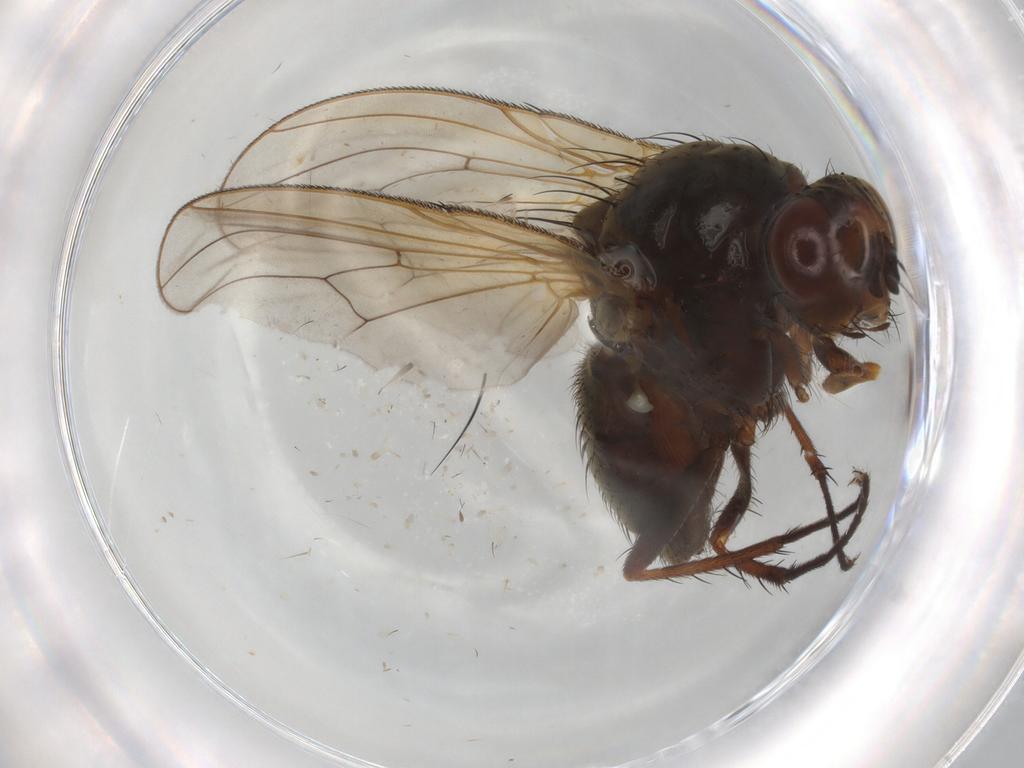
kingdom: Animalia
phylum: Arthropoda
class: Insecta
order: Diptera
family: Anthomyiidae
